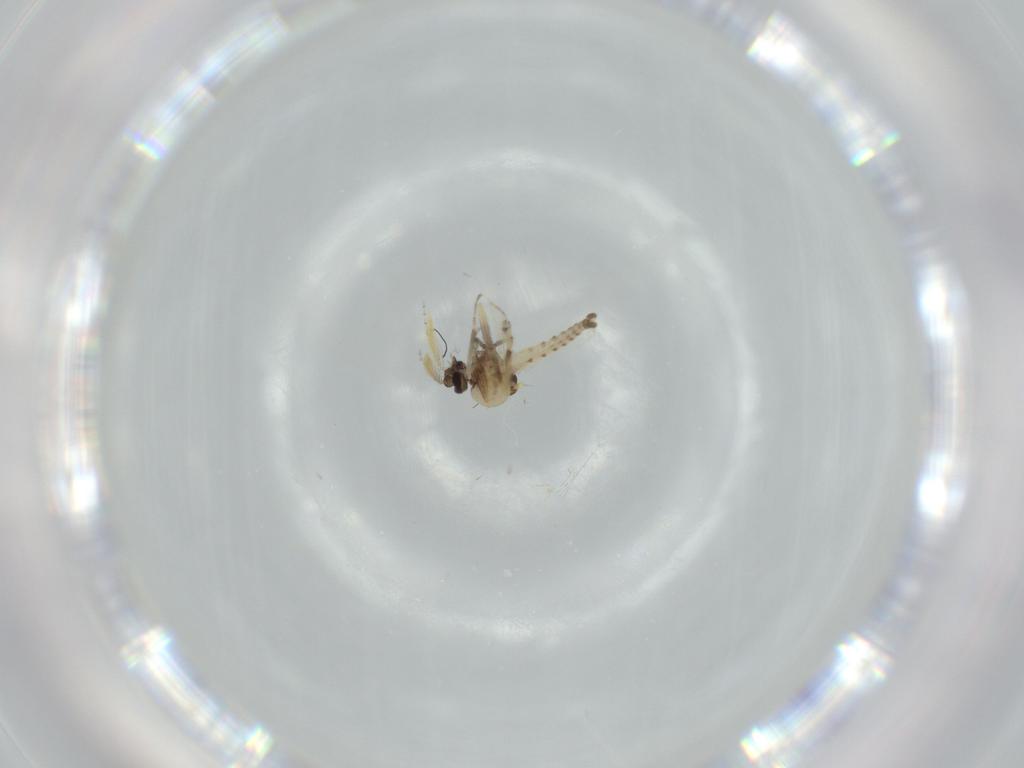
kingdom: Animalia
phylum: Arthropoda
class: Insecta
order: Diptera
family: Ceratopogonidae
